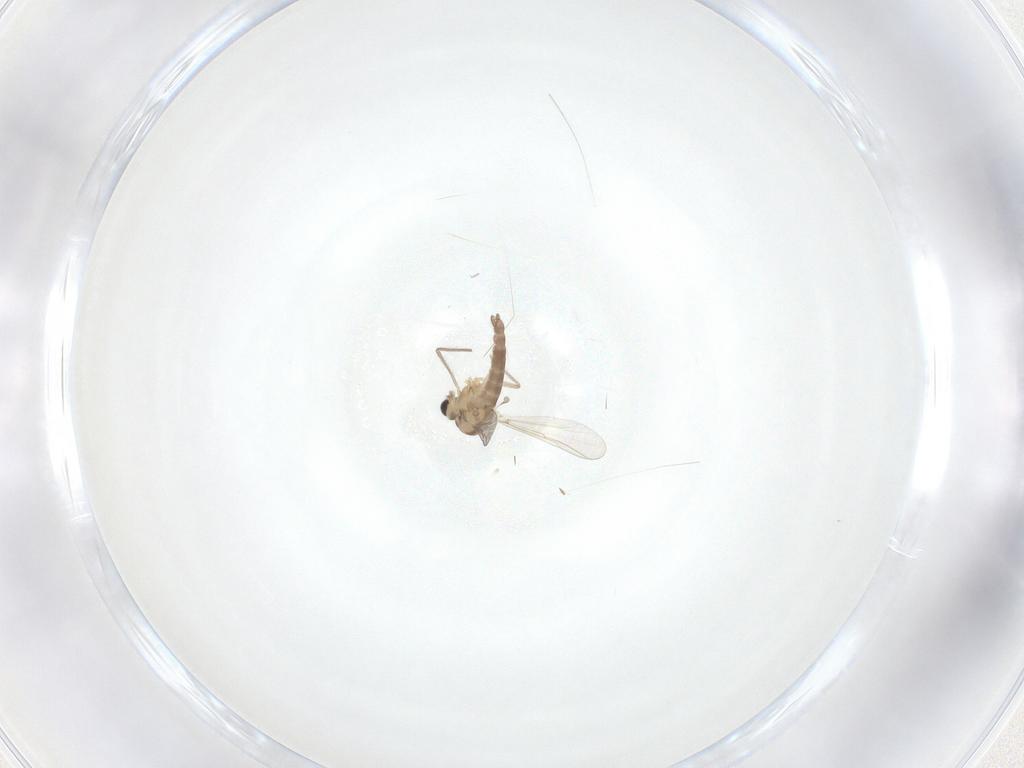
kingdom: Animalia
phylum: Arthropoda
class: Insecta
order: Diptera
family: Chironomidae
